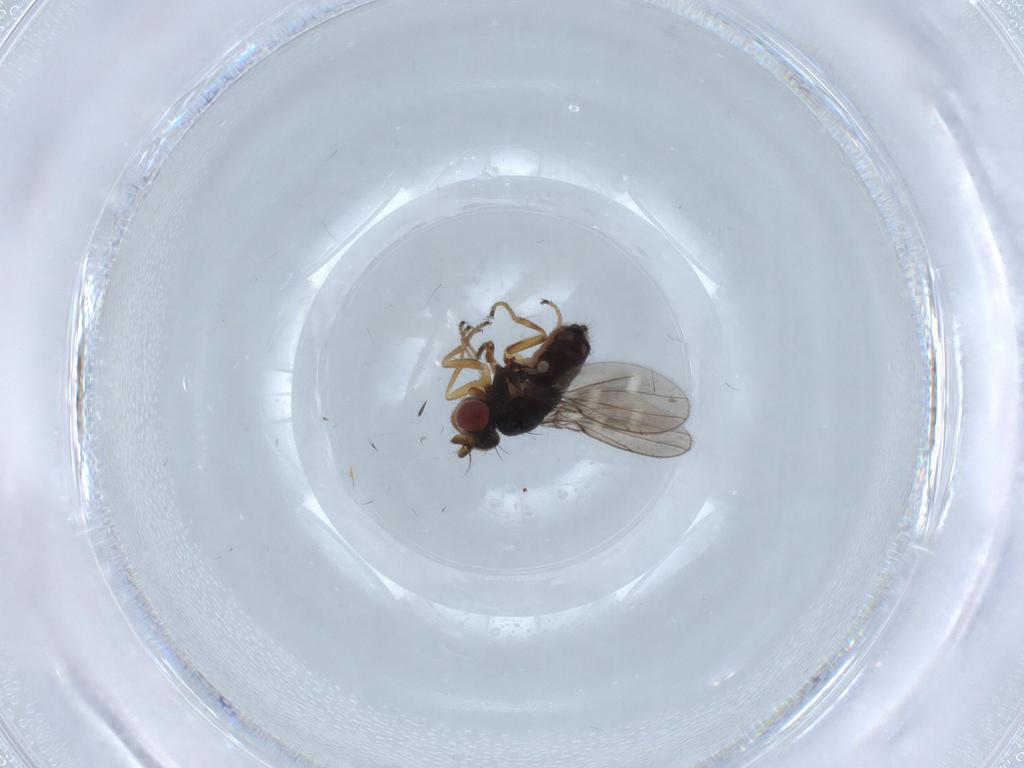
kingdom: Animalia
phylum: Arthropoda
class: Insecta
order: Diptera
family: Ephydridae
